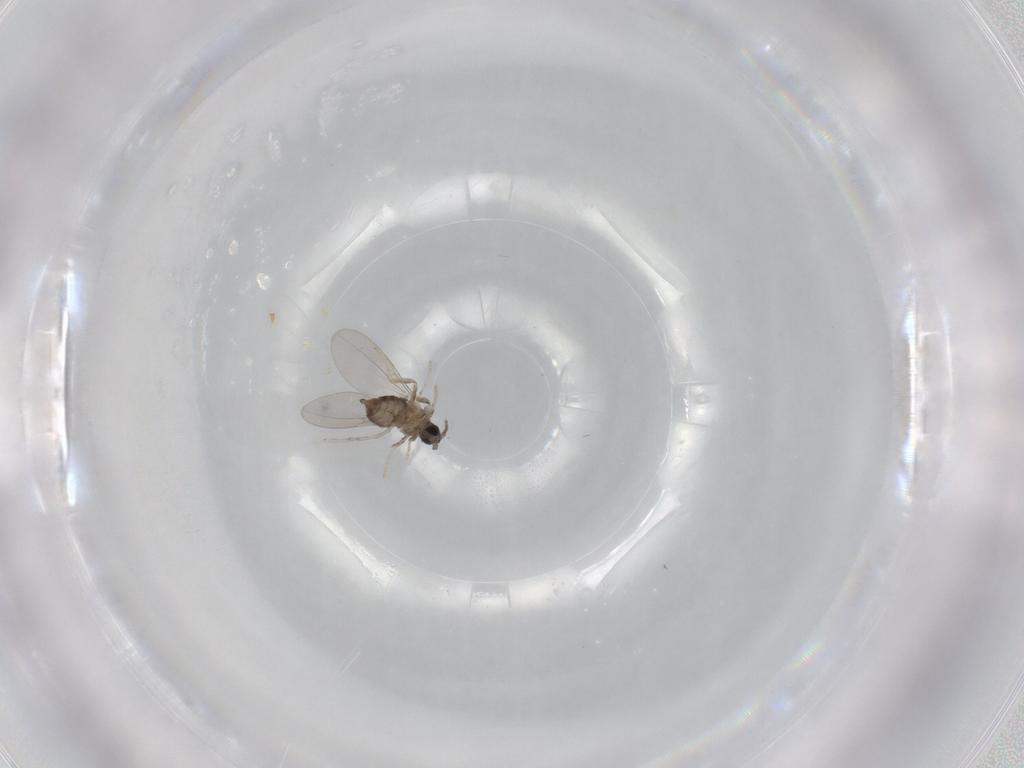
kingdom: Animalia
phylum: Arthropoda
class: Insecta
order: Diptera
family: Cecidomyiidae
